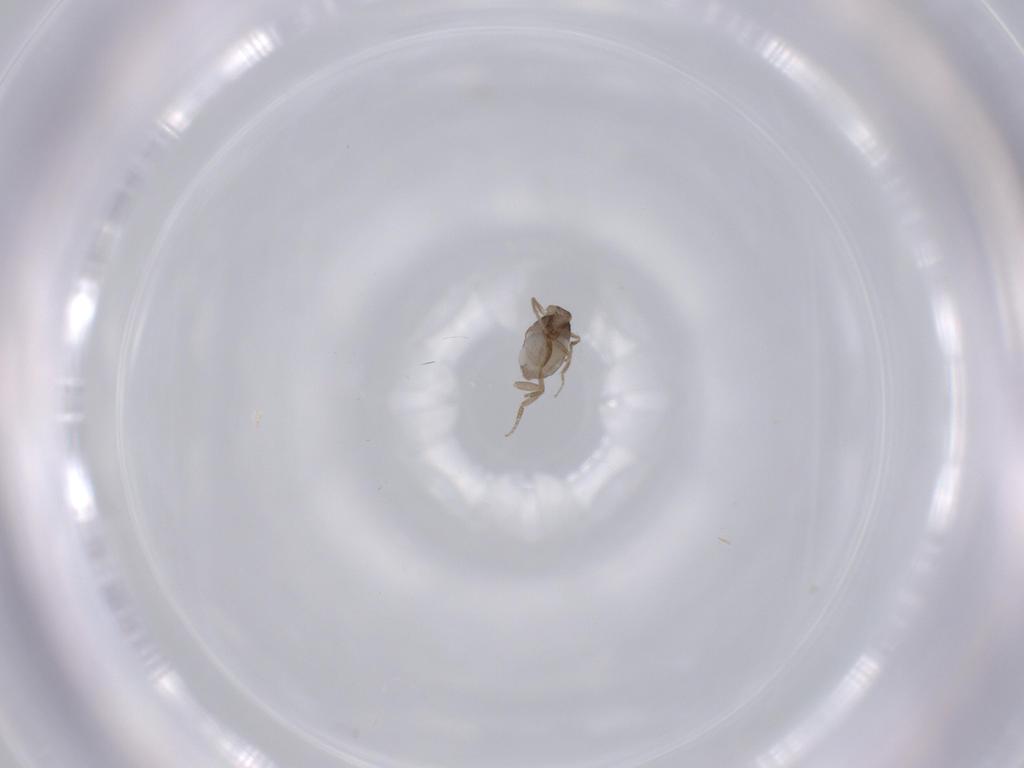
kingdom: Animalia
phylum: Arthropoda
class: Insecta
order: Diptera
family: Phoridae
